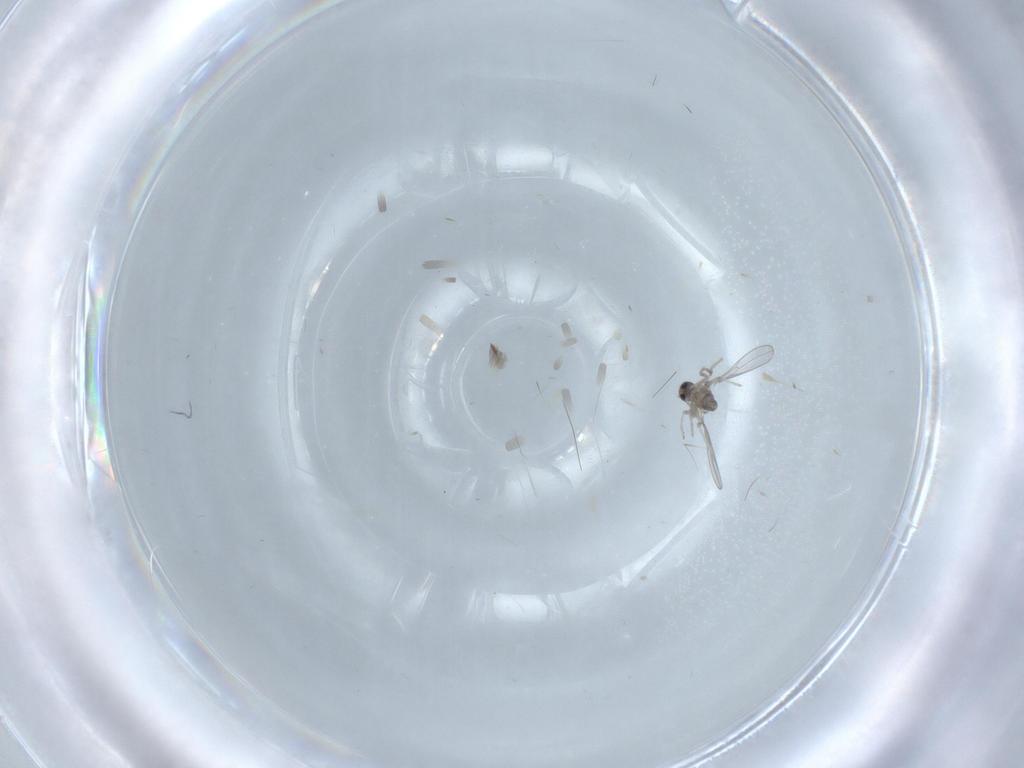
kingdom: Animalia
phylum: Arthropoda
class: Insecta
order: Diptera
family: Cecidomyiidae
